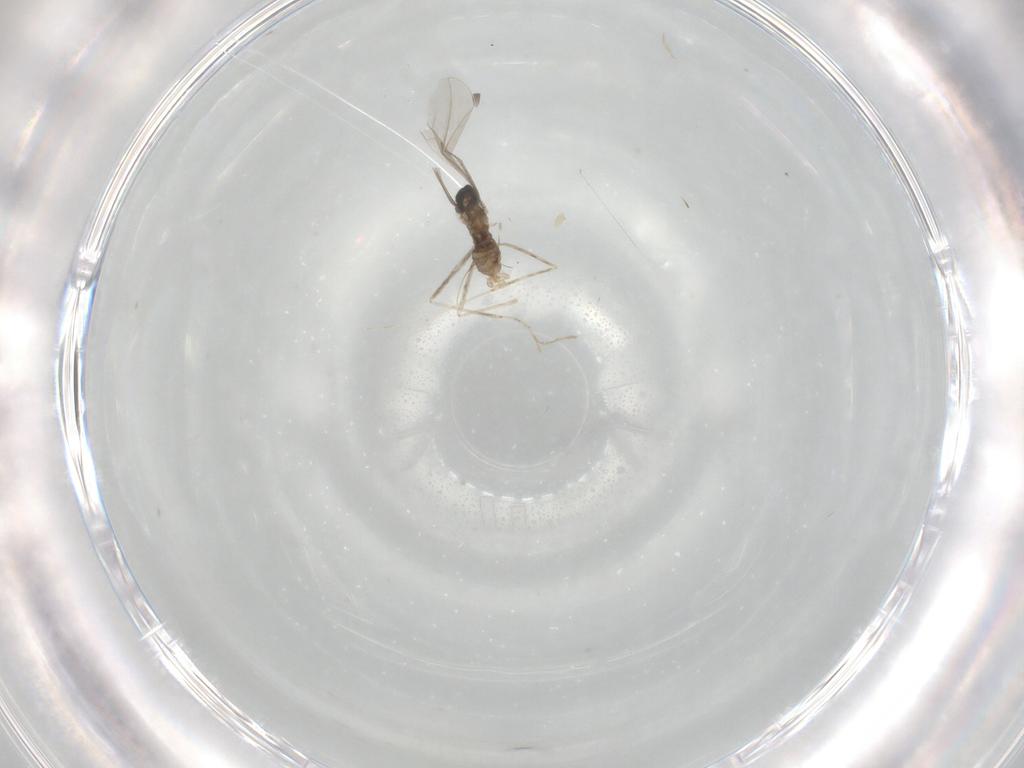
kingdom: Animalia
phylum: Arthropoda
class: Insecta
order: Diptera
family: Cecidomyiidae
